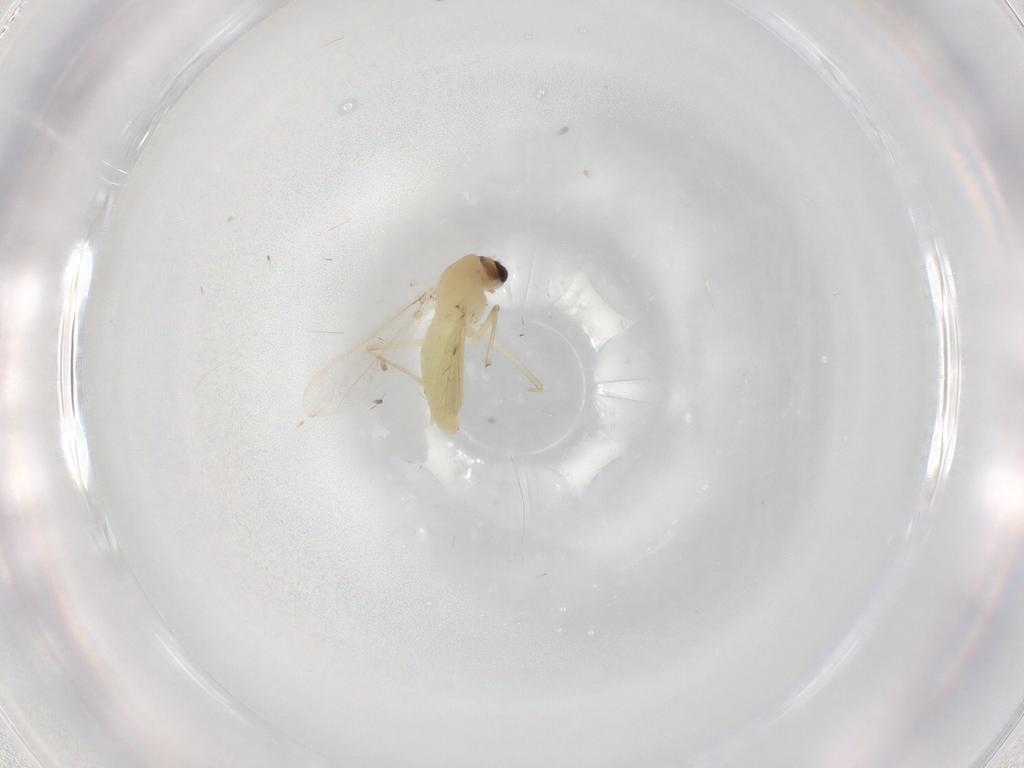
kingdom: Animalia
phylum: Arthropoda
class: Insecta
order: Diptera
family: Chironomidae
